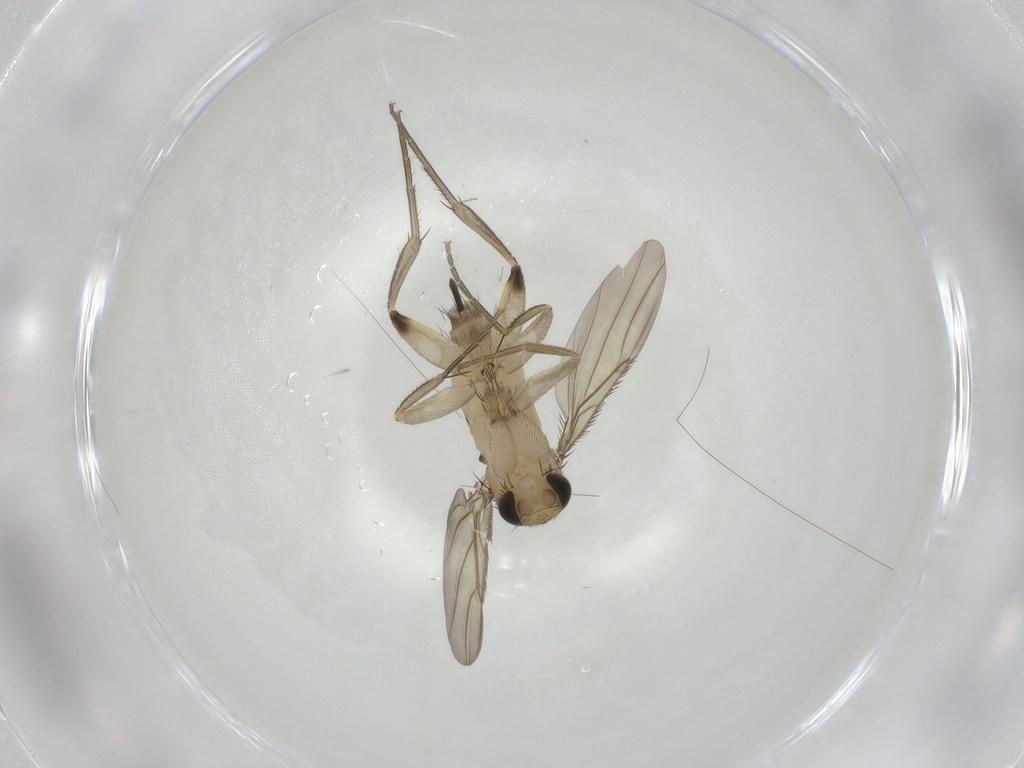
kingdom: Animalia
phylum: Arthropoda
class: Insecta
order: Diptera
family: Phoridae
